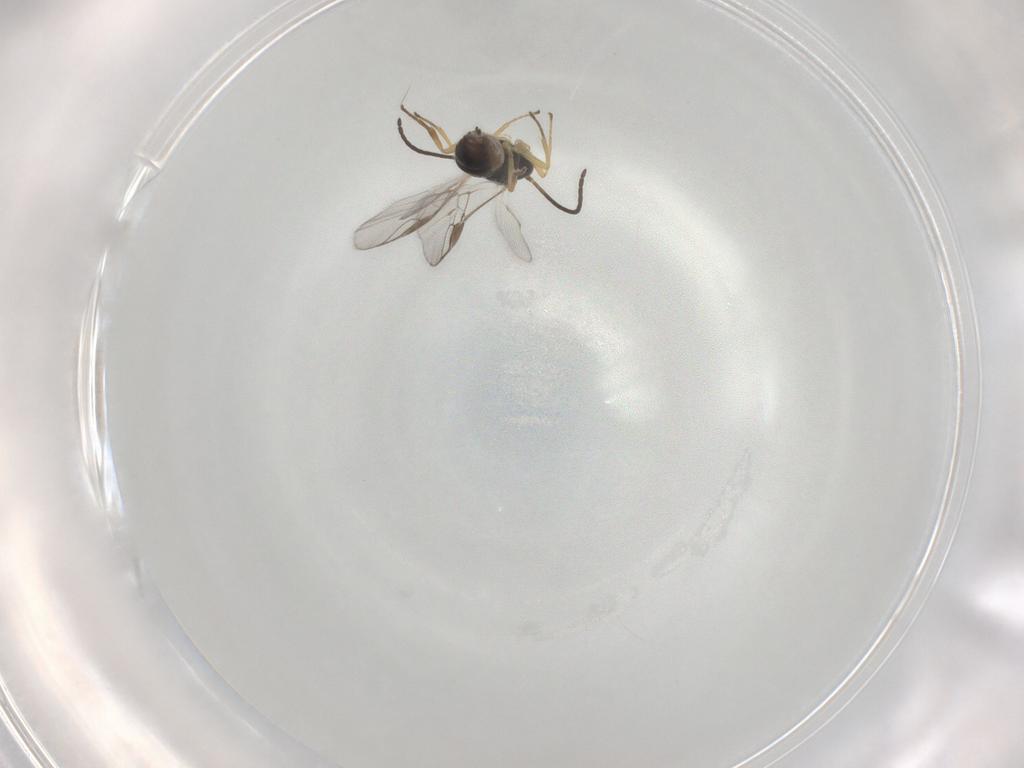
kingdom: Animalia
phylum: Arthropoda
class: Insecta
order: Hymenoptera
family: Braconidae
